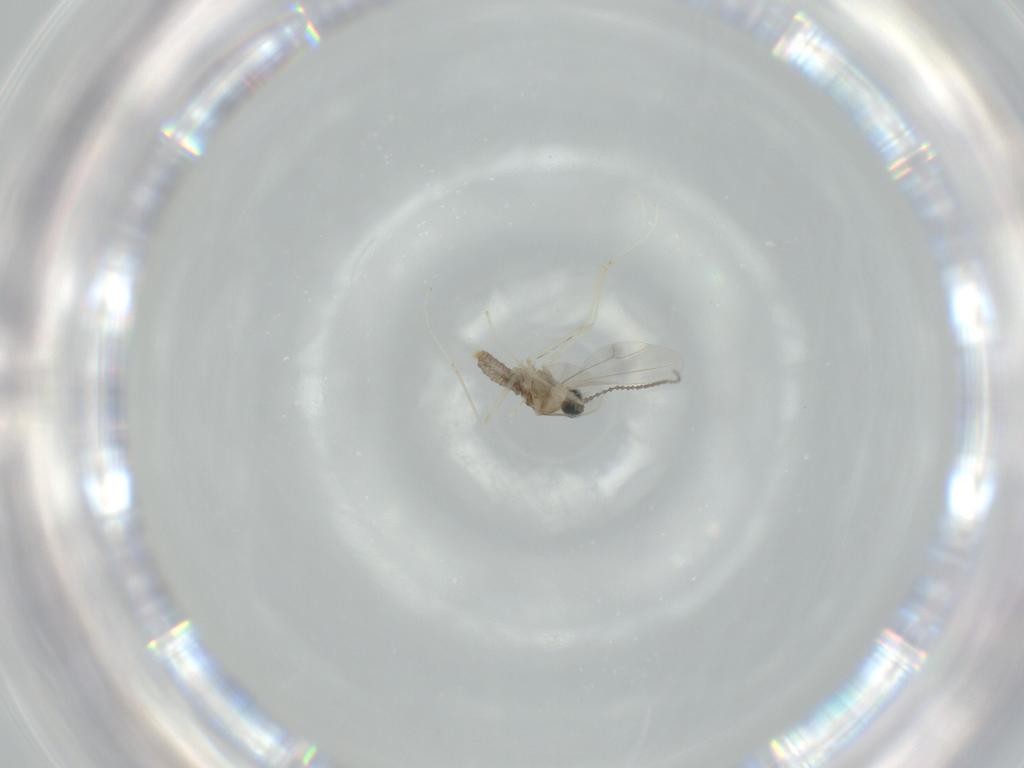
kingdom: Animalia
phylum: Arthropoda
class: Insecta
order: Diptera
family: Cecidomyiidae
